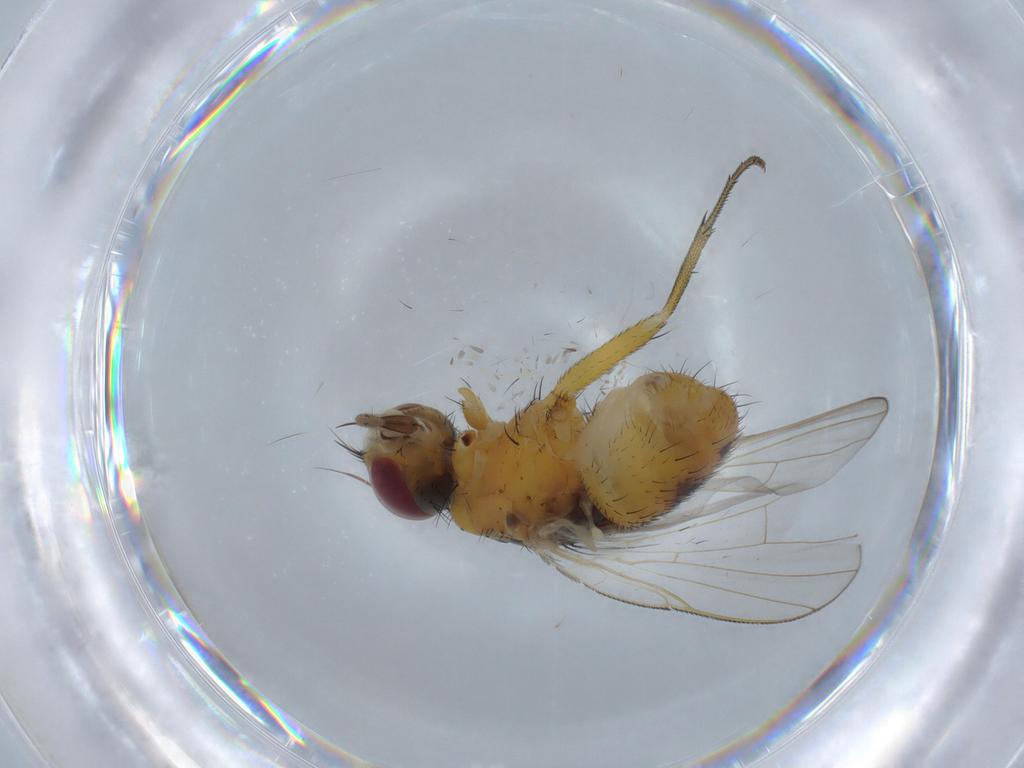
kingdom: Animalia
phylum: Arthropoda
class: Insecta
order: Diptera
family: Muscidae
